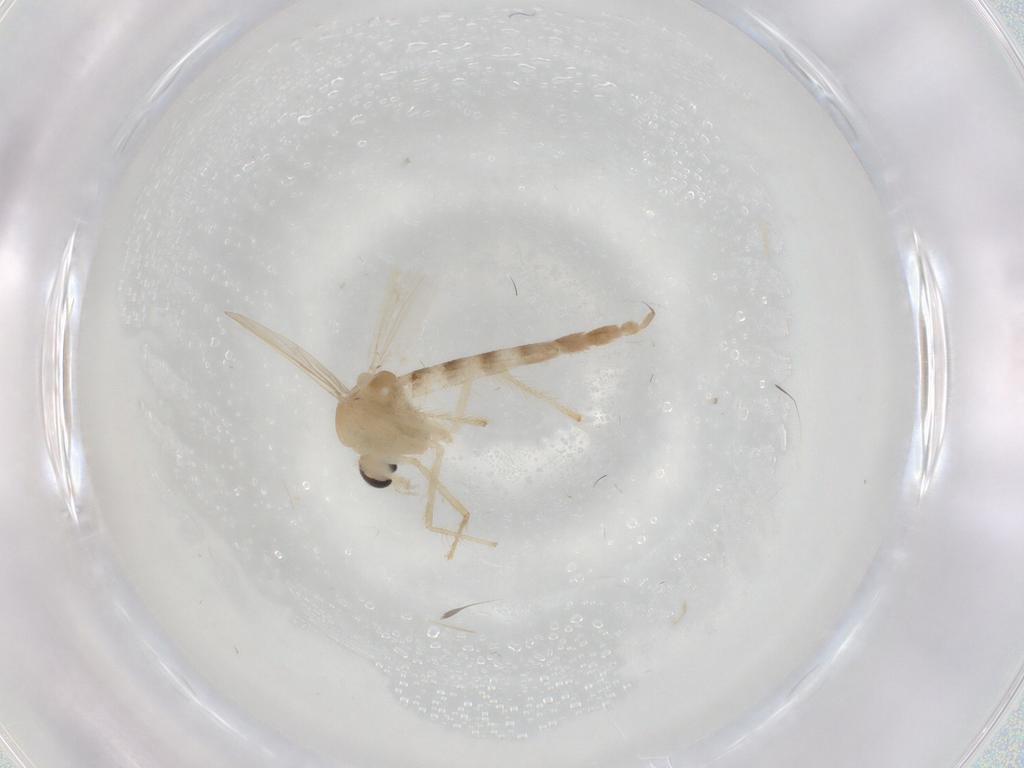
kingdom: Animalia
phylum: Arthropoda
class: Insecta
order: Diptera
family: Chironomidae
